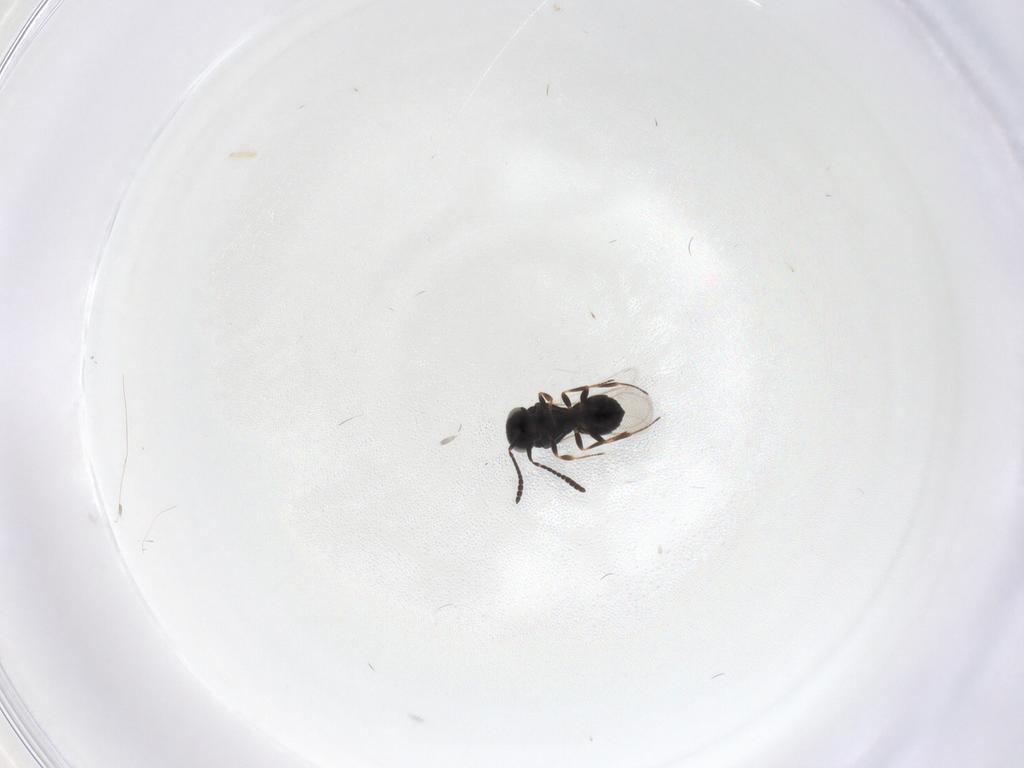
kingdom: Animalia
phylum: Arthropoda
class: Insecta
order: Hymenoptera
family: Scelionidae
